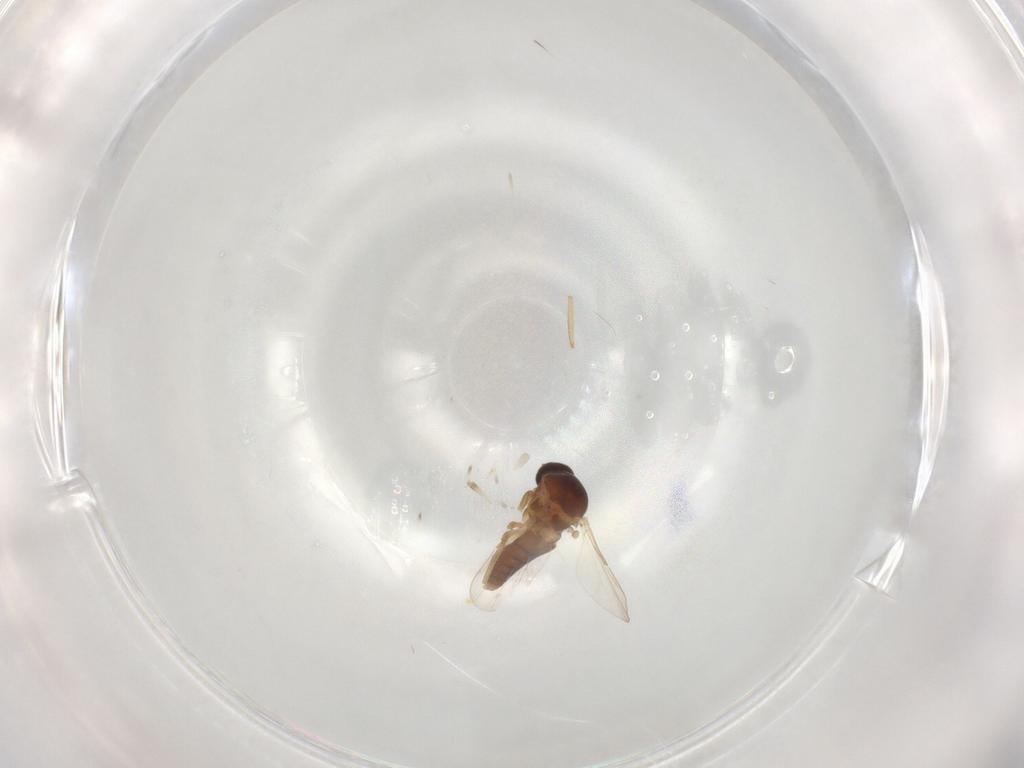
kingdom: Animalia
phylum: Arthropoda
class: Insecta
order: Diptera
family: Ceratopogonidae
